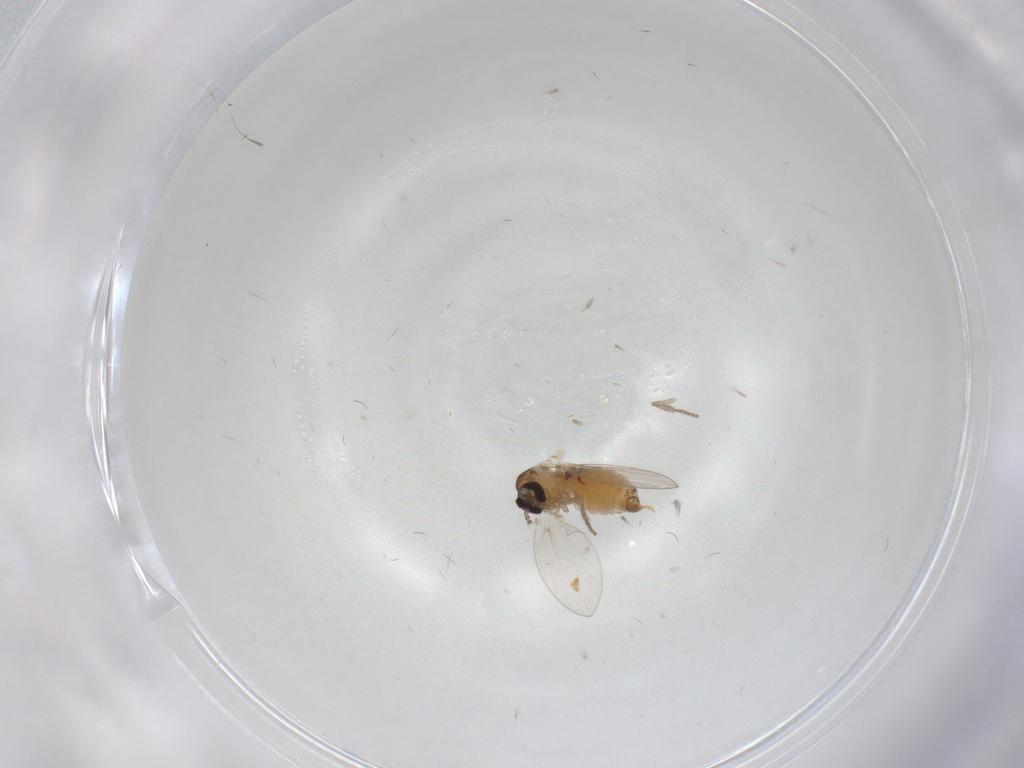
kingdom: Animalia
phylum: Arthropoda
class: Insecta
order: Diptera
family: Psychodidae
